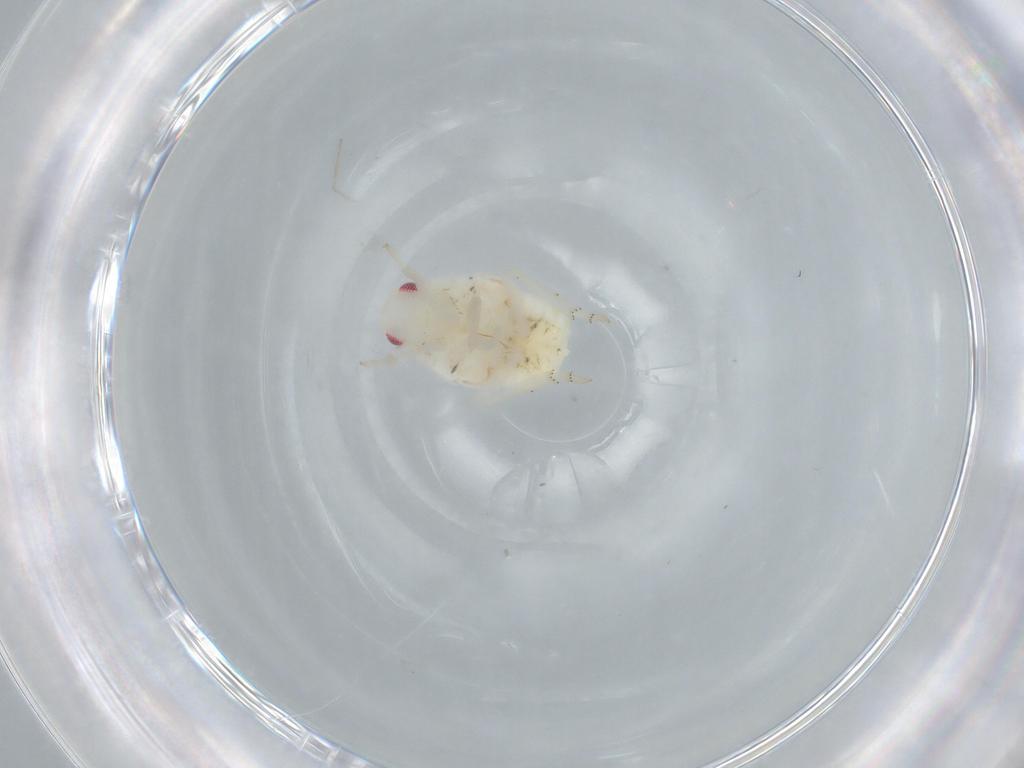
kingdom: Animalia
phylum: Arthropoda
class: Insecta
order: Hemiptera
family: Flatidae
